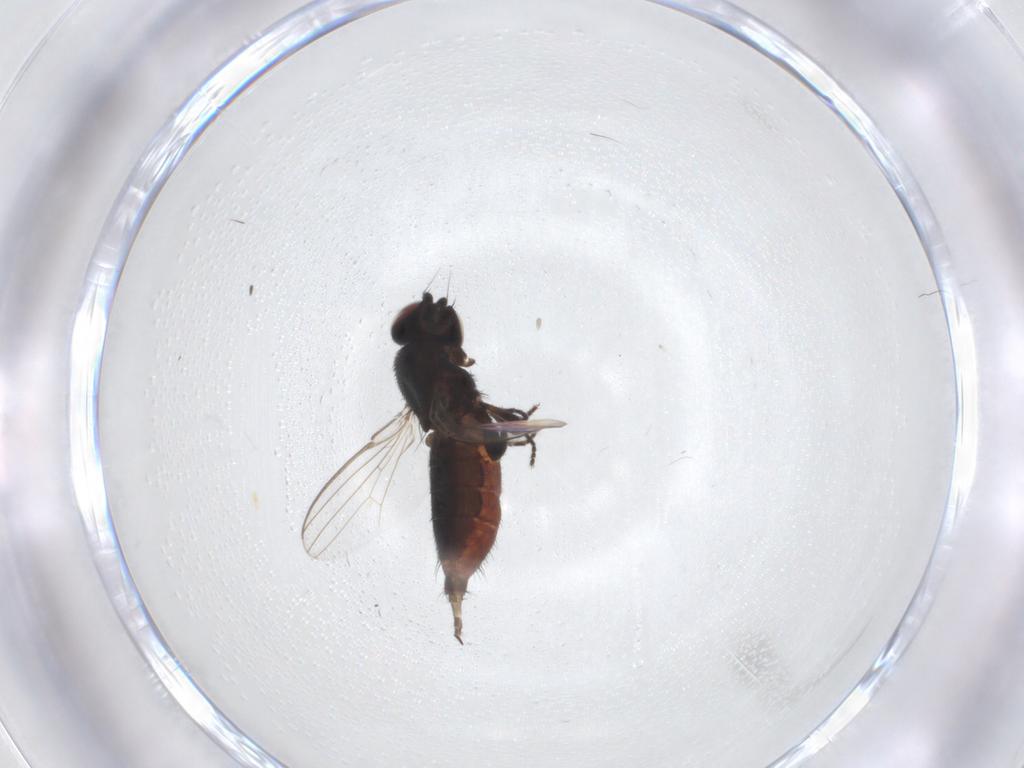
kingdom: Animalia
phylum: Arthropoda
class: Insecta
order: Diptera
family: Milichiidae
